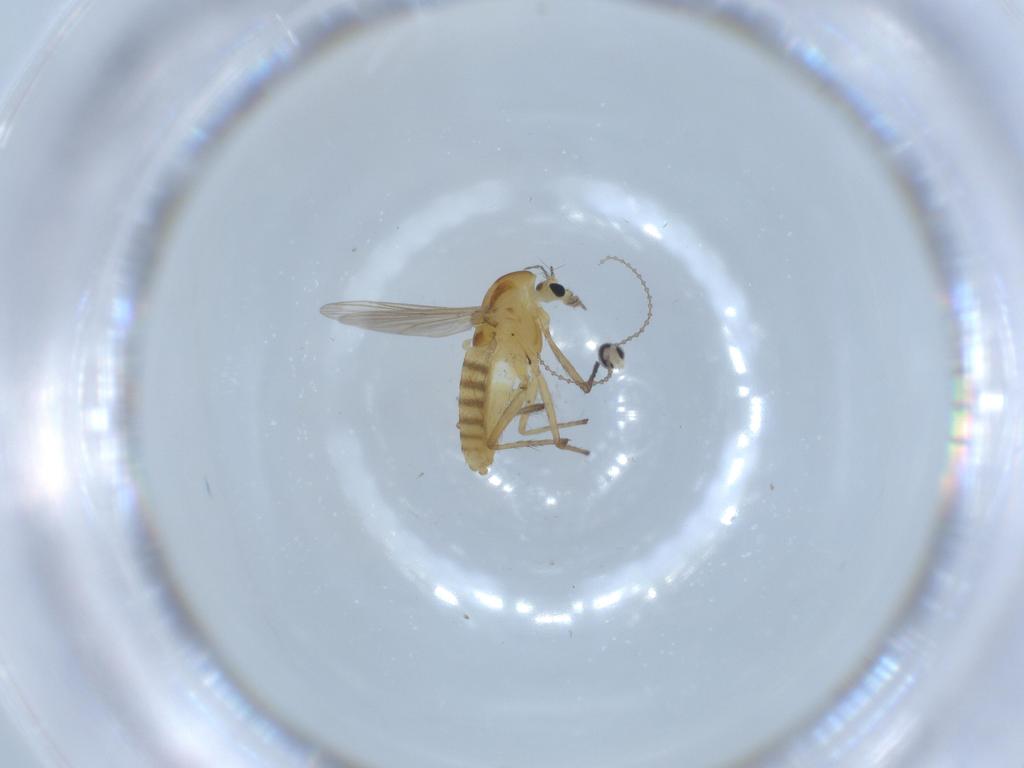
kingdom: Animalia
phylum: Arthropoda
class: Insecta
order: Diptera
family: Chironomidae
